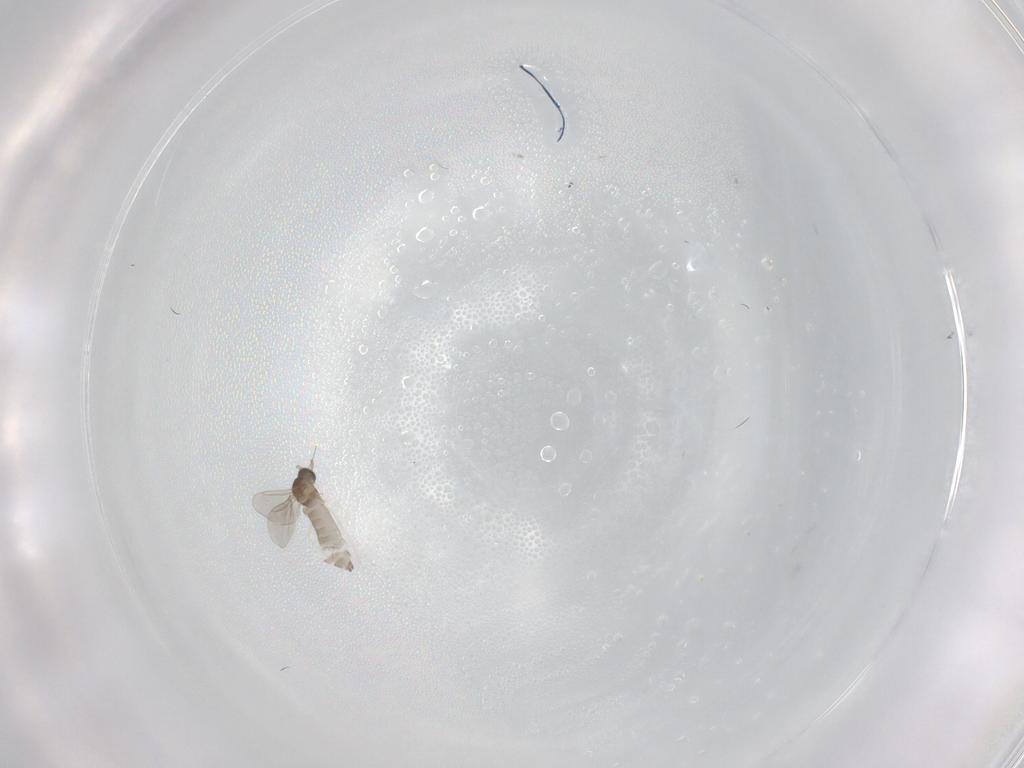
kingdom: Animalia
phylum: Arthropoda
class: Insecta
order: Diptera
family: Cecidomyiidae
